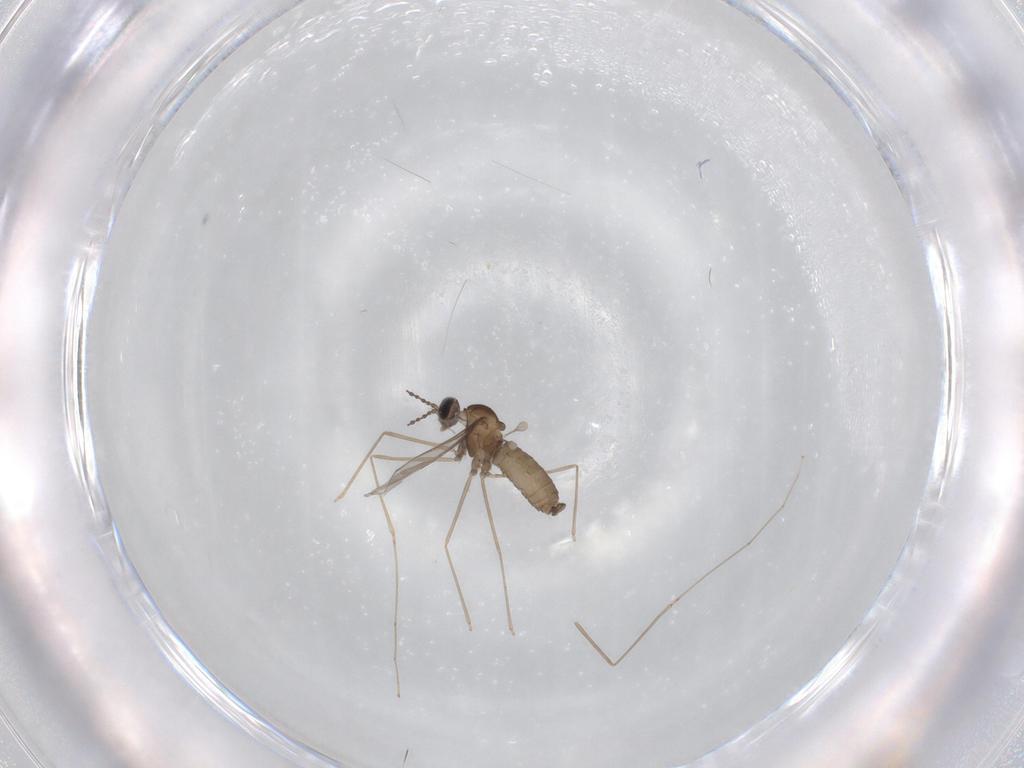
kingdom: Animalia
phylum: Arthropoda
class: Insecta
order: Diptera
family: Cecidomyiidae
